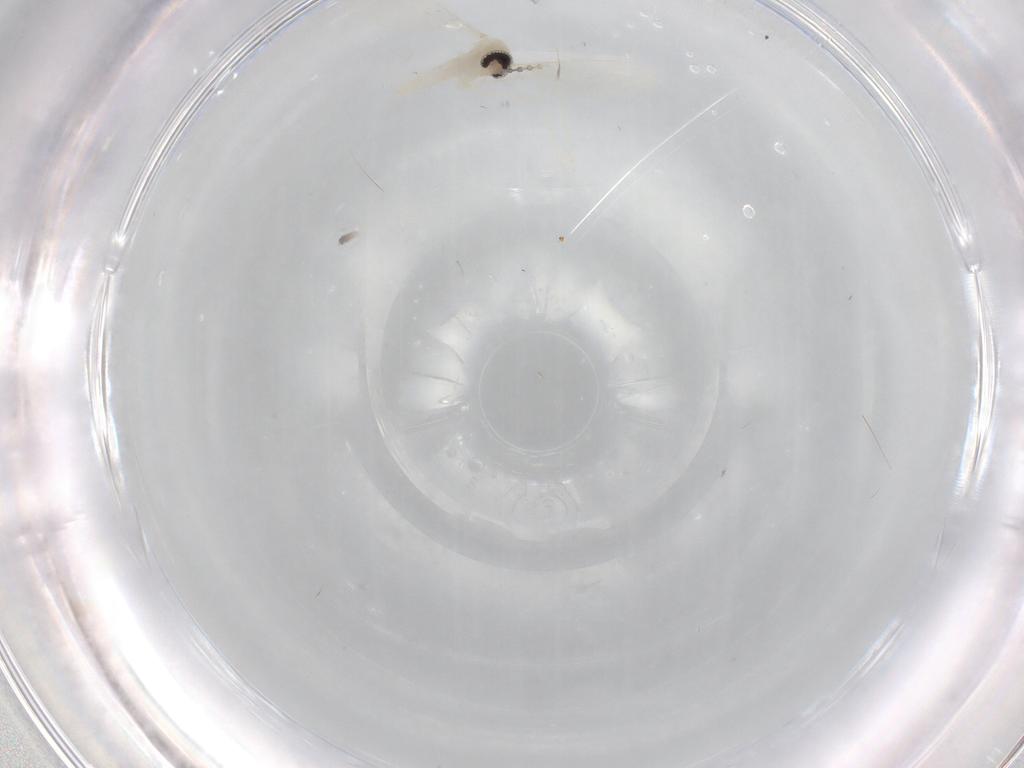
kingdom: Animalia
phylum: Arthropoda
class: Insecta
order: Diptera
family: Cecidomyiidae
